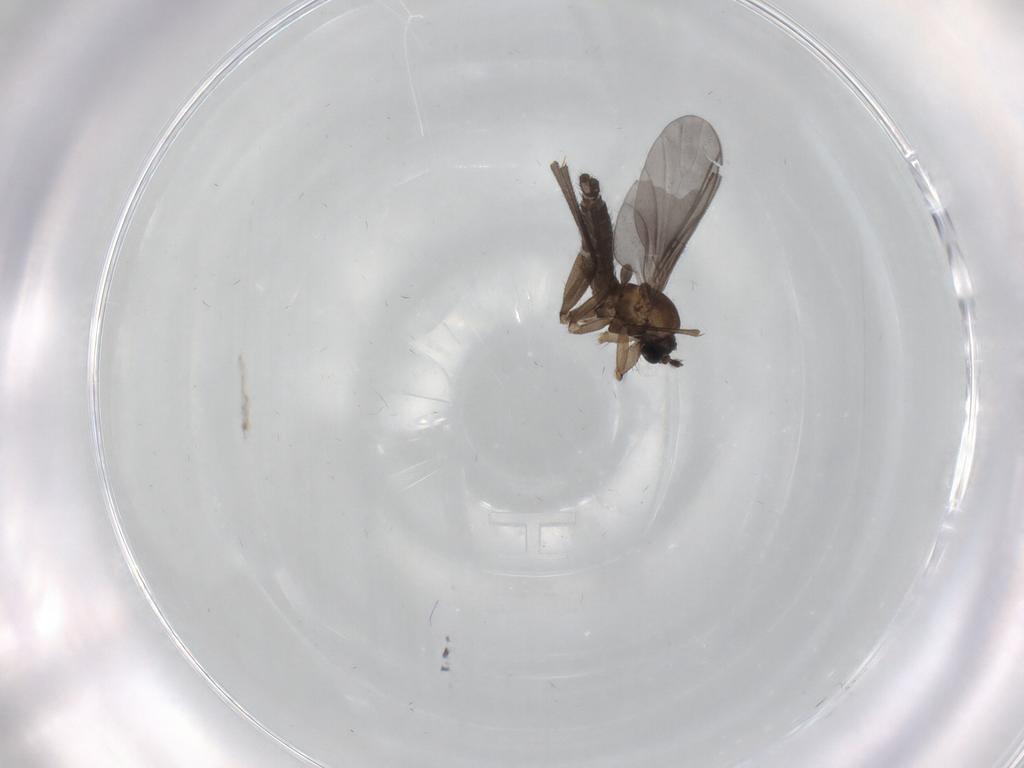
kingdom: Animalia
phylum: Arthropoda
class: Insecta
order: Diptera
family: Sciaridae
